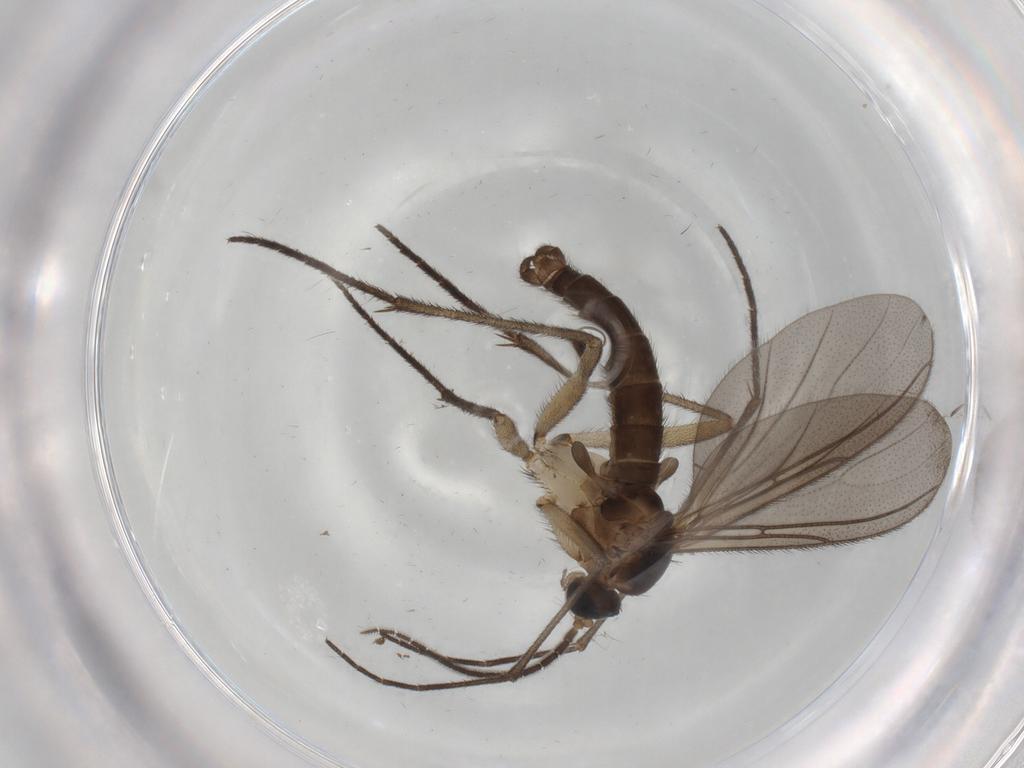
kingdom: Animalia
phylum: Arthropoda
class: Insecta
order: Diptera
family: Sciaridae
